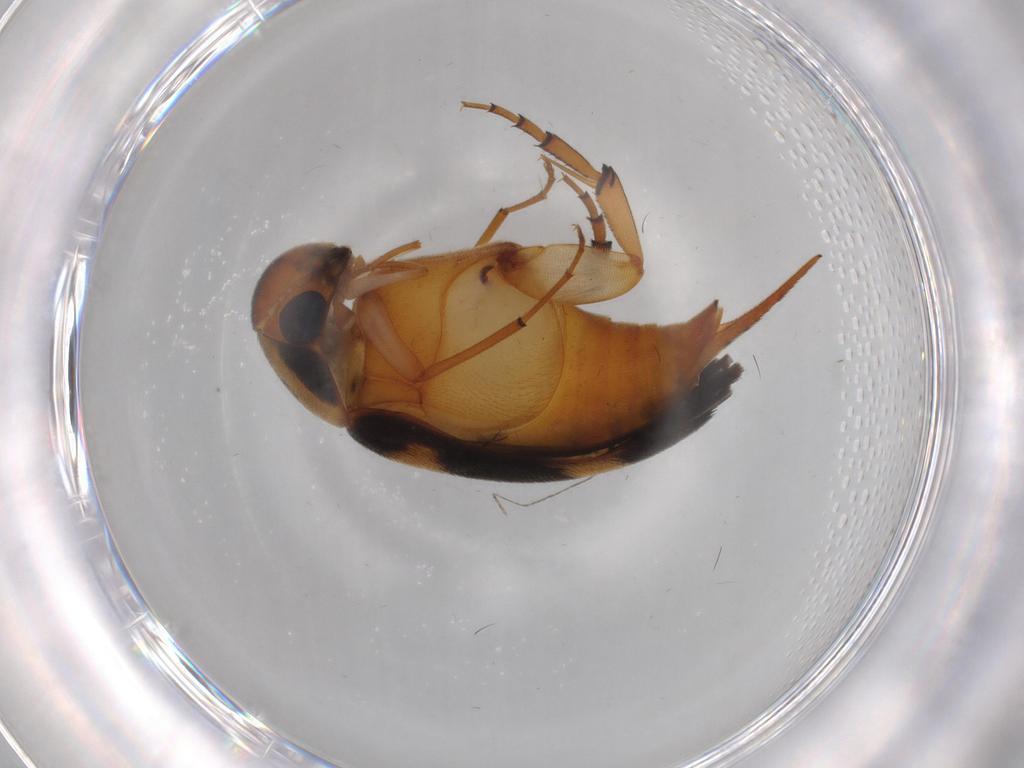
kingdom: Animalia
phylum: Arthropoda
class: Insecta
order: Coleoptera
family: Mordellidae
